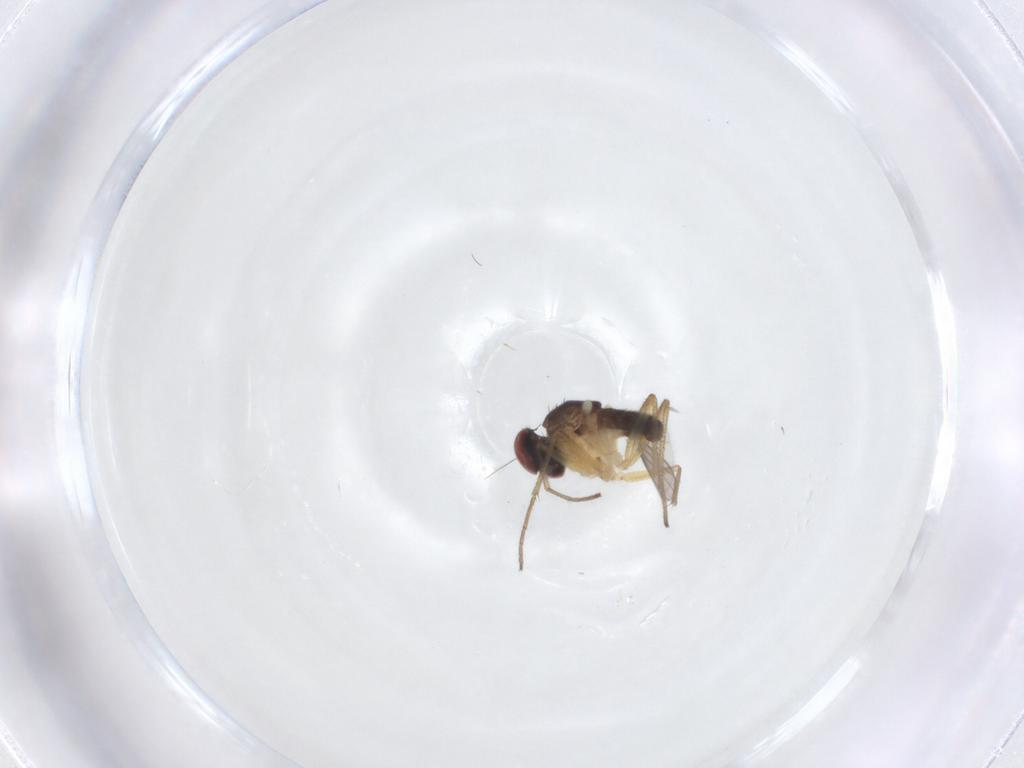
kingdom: Animalia
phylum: Arthropoda
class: Insecta
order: Diptera
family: Dolichopodidae
